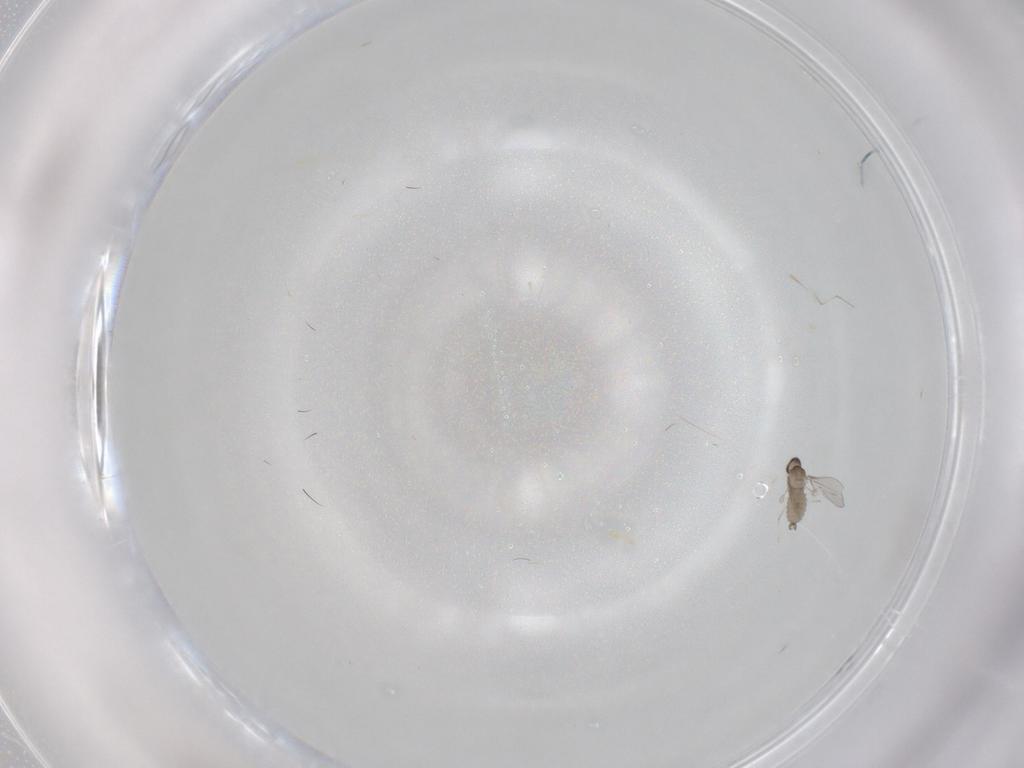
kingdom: Animalia
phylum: Arthropoda
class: Insecta
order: Diptera
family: Cecidomyiidae
